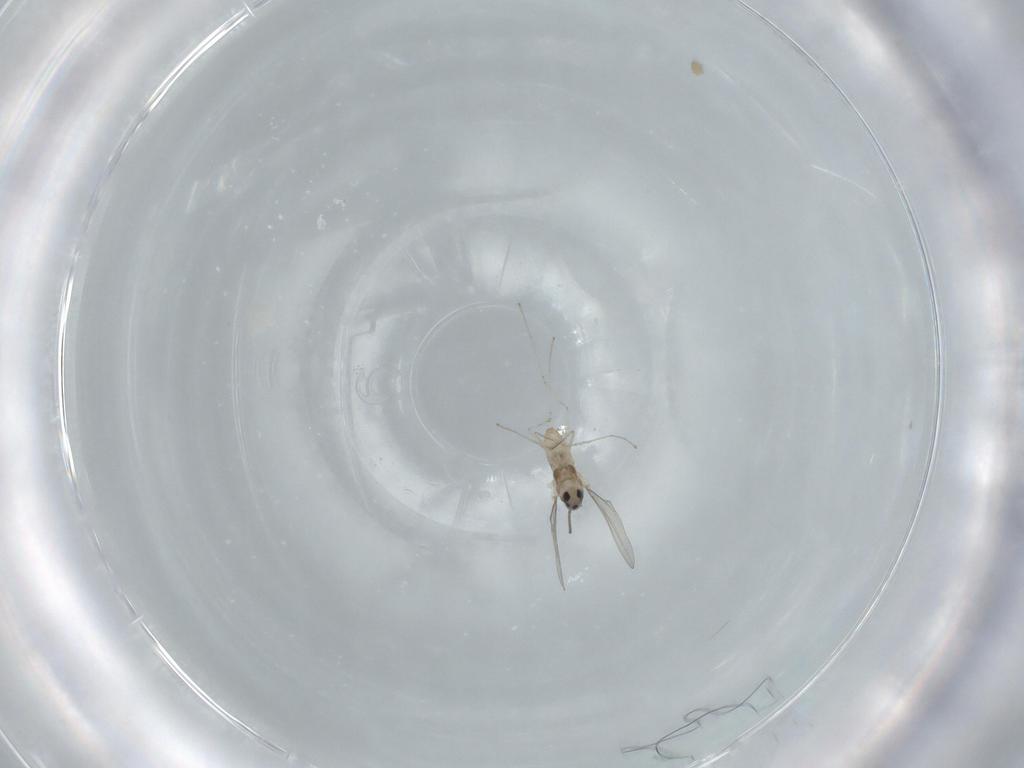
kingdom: Animalia
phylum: Arthropoda
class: Insecta
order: Diptera
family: Cecidomyiidae
